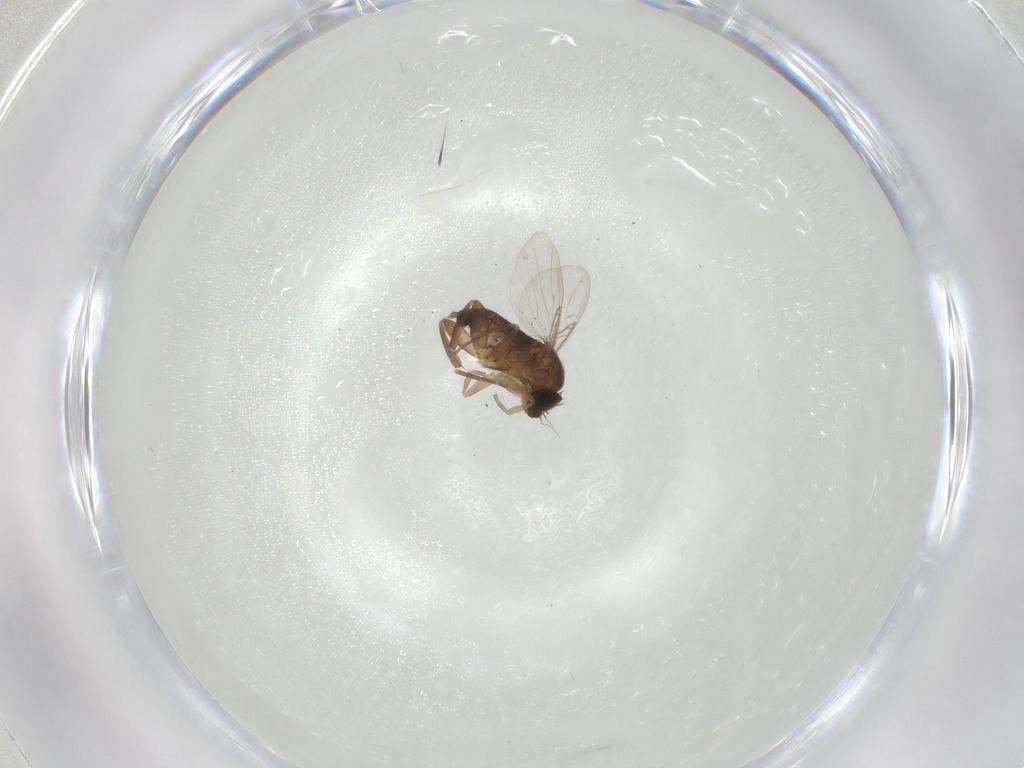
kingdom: Animalia
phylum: Arthropoda
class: Insecta
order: Diptera
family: Phoridae
